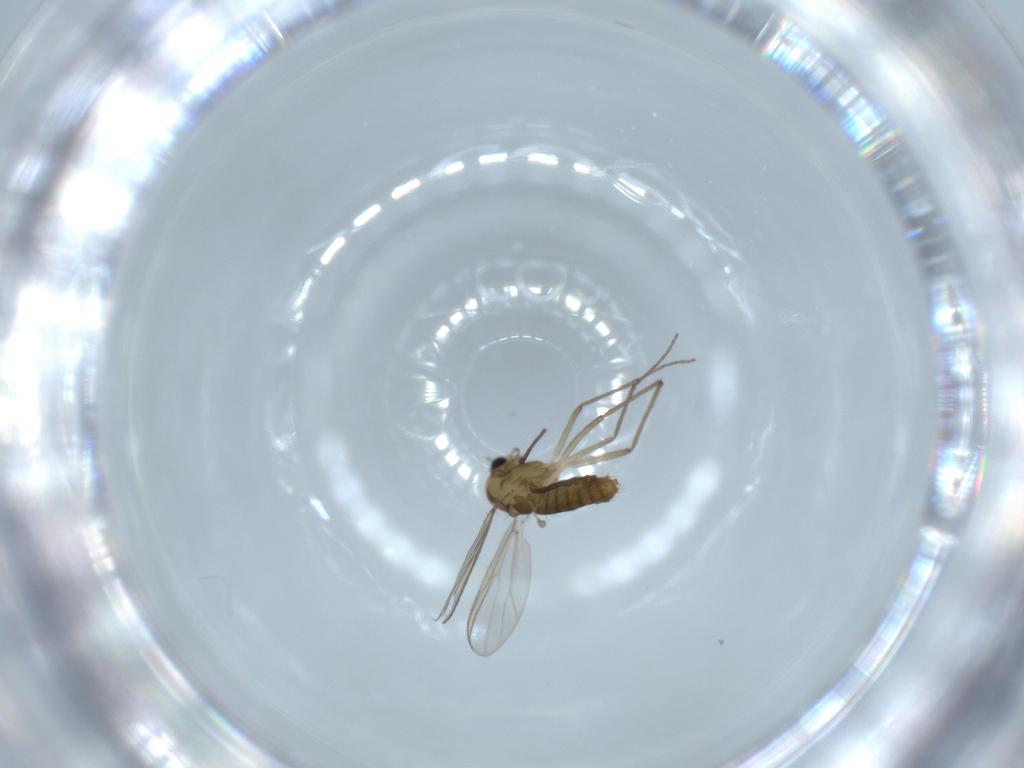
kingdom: Animalia
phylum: Arthropoda
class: Insecta
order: Diptera
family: Chironomidae
